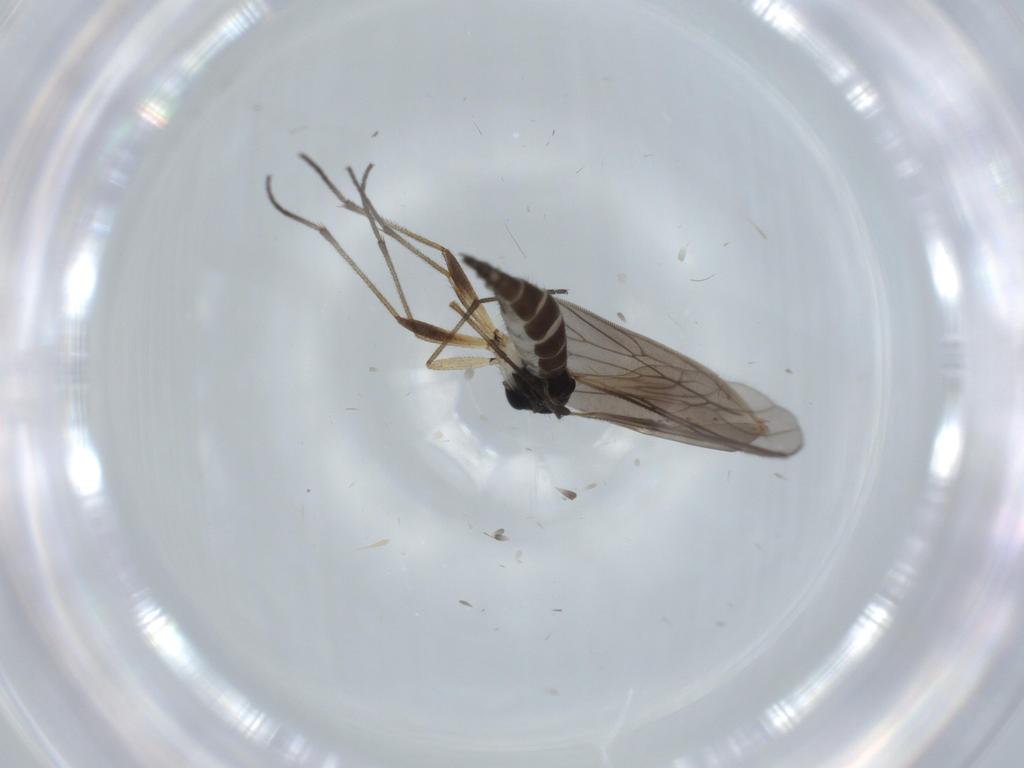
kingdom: Animalia
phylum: Arthropoda
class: Insecta
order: Diptera
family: Sciaridae
